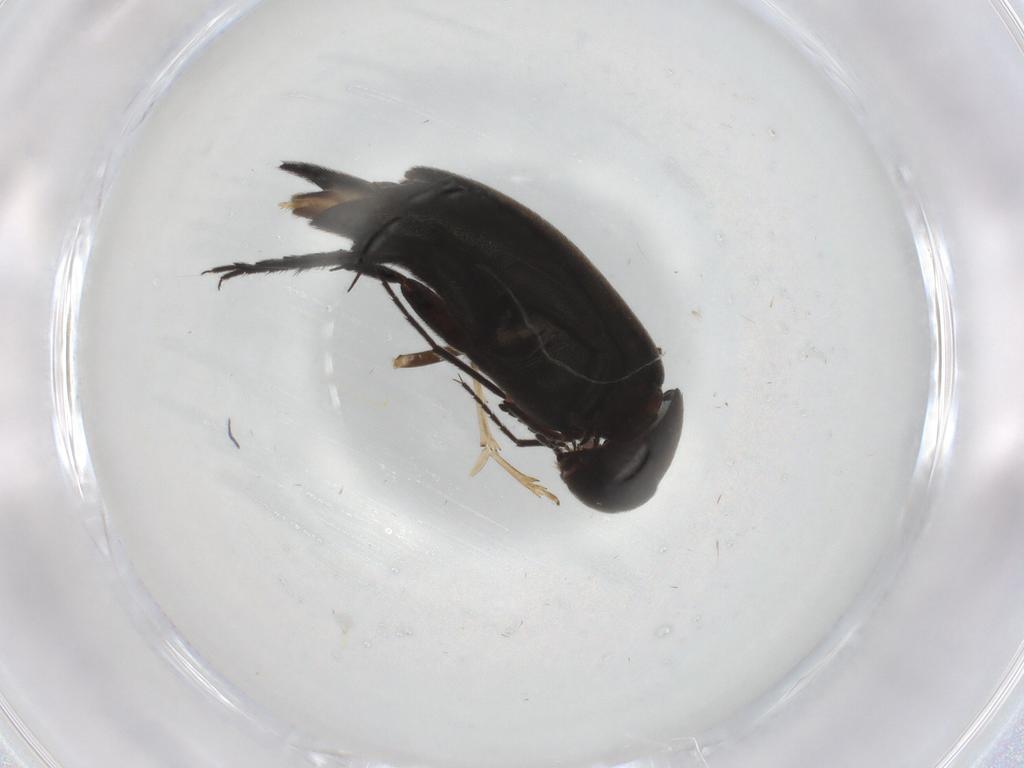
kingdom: Animalia
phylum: Arthropoda
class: Insecta
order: Coleoptera
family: Mordellidae
